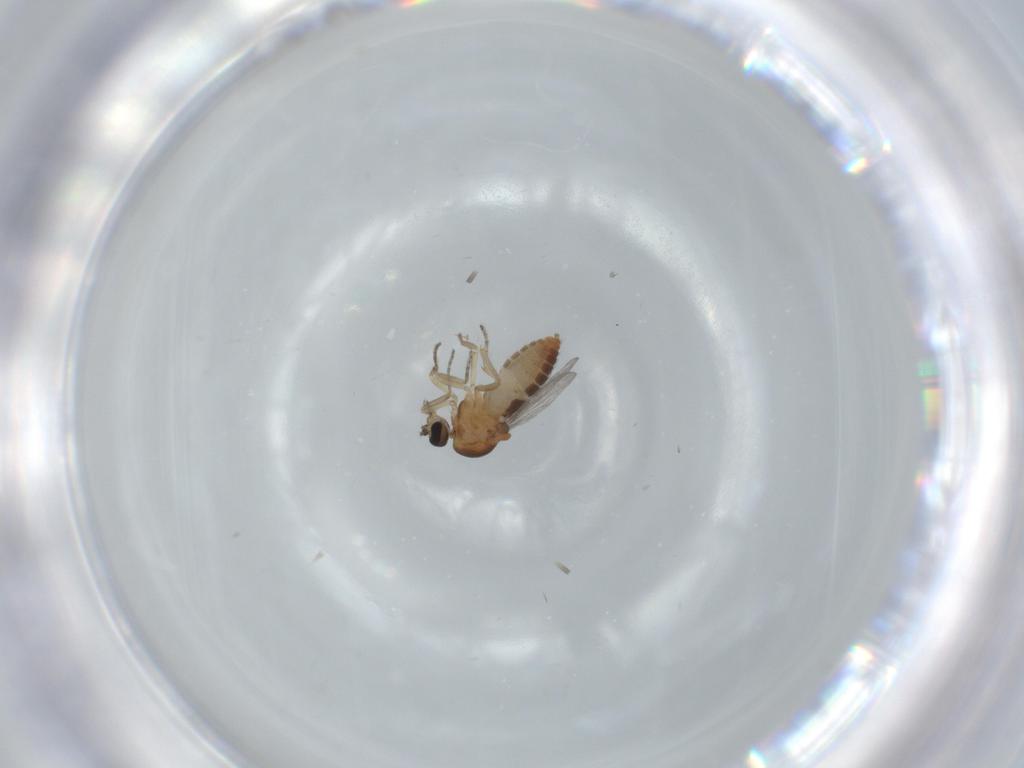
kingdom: Animalia
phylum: Arthropoda
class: Insecta
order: Diptera
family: Ceratopogonidae
